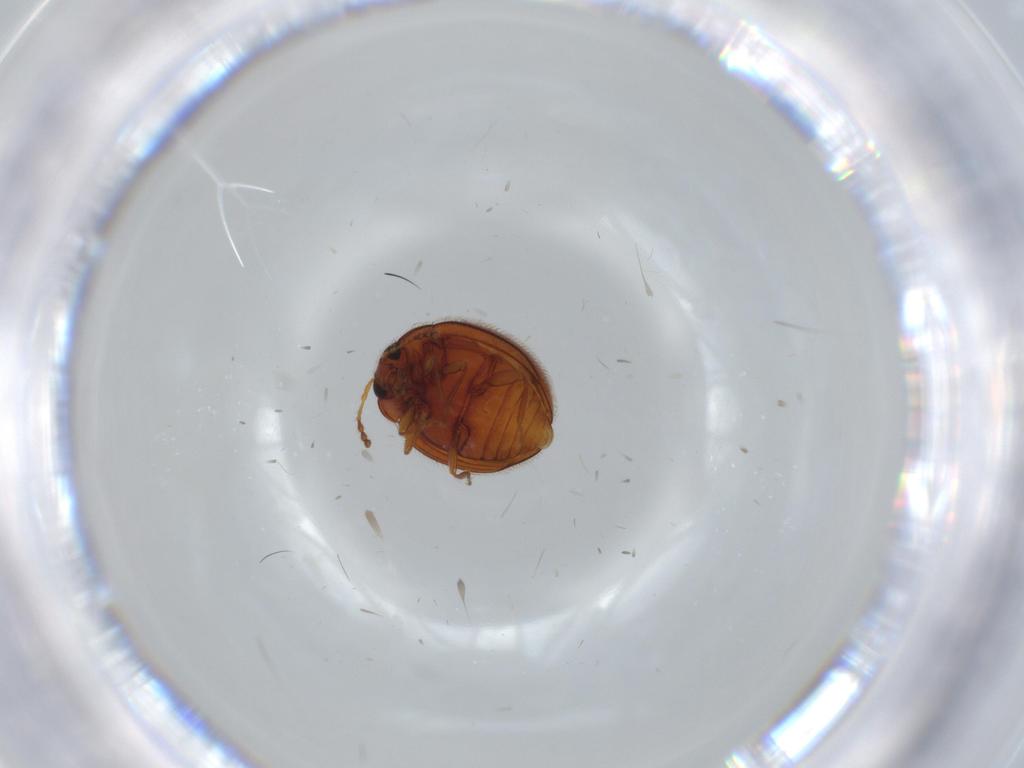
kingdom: Animalia
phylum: Arthropoda
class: Insecta
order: Coleoptera
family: Anamorphidae
